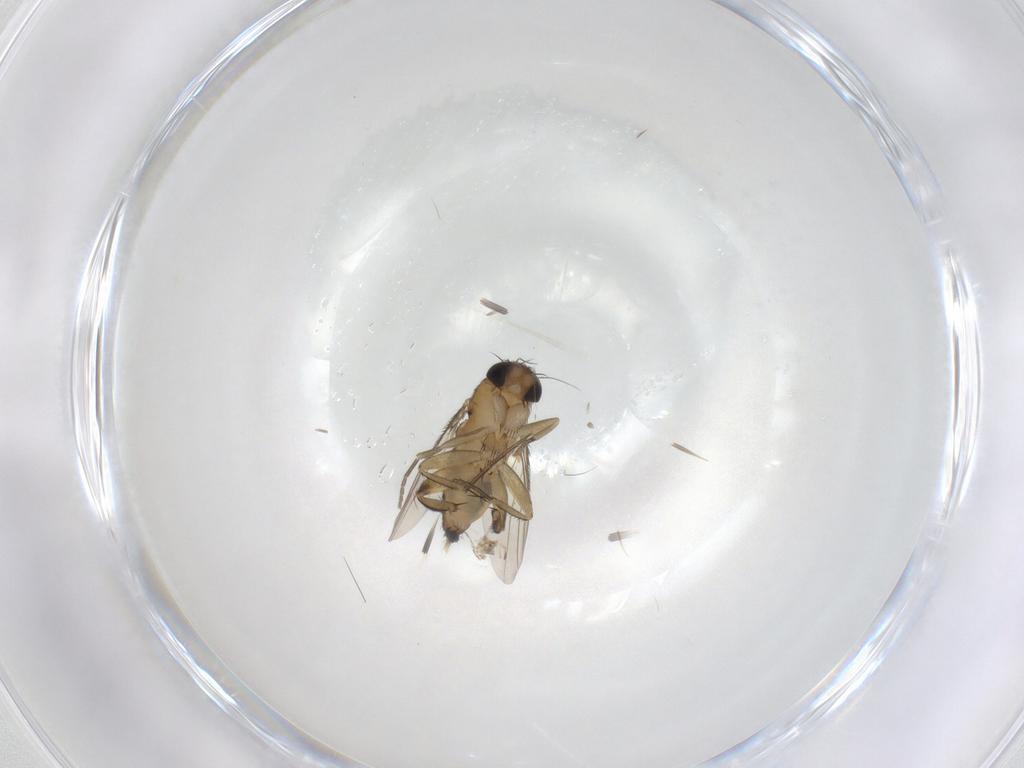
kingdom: Animalia
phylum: Arthropoda
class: Insecta
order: Diptera
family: Phoridae
